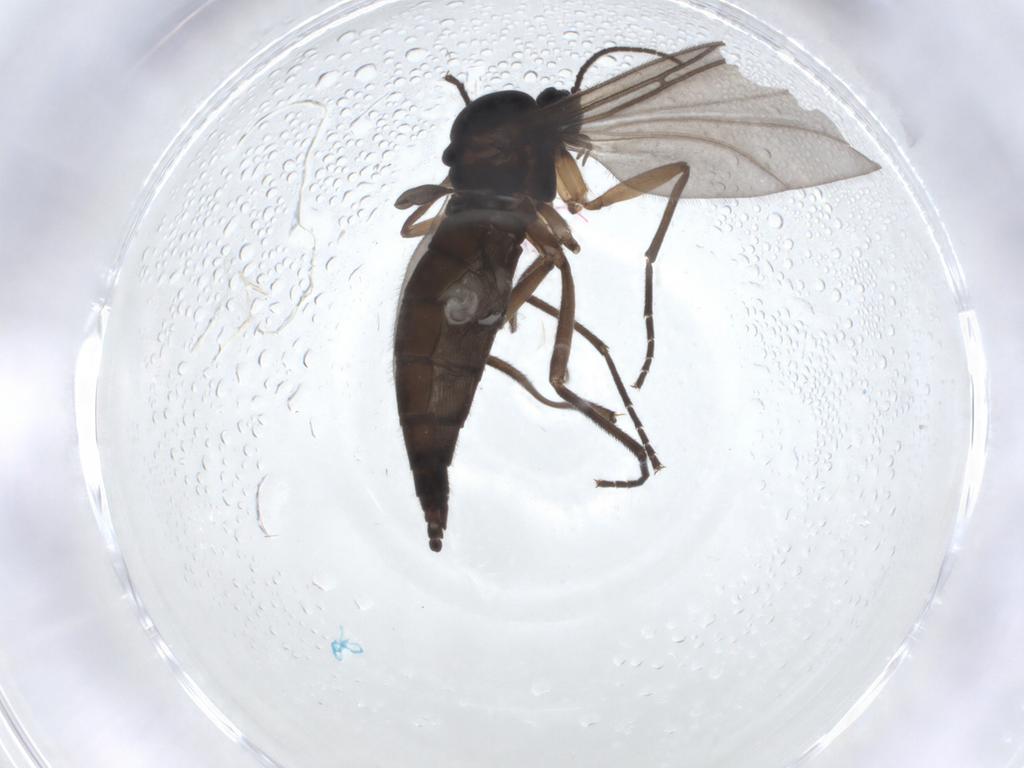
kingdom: Animalia
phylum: Arthropoda
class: Insecta
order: Diptera
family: Sciaridae
